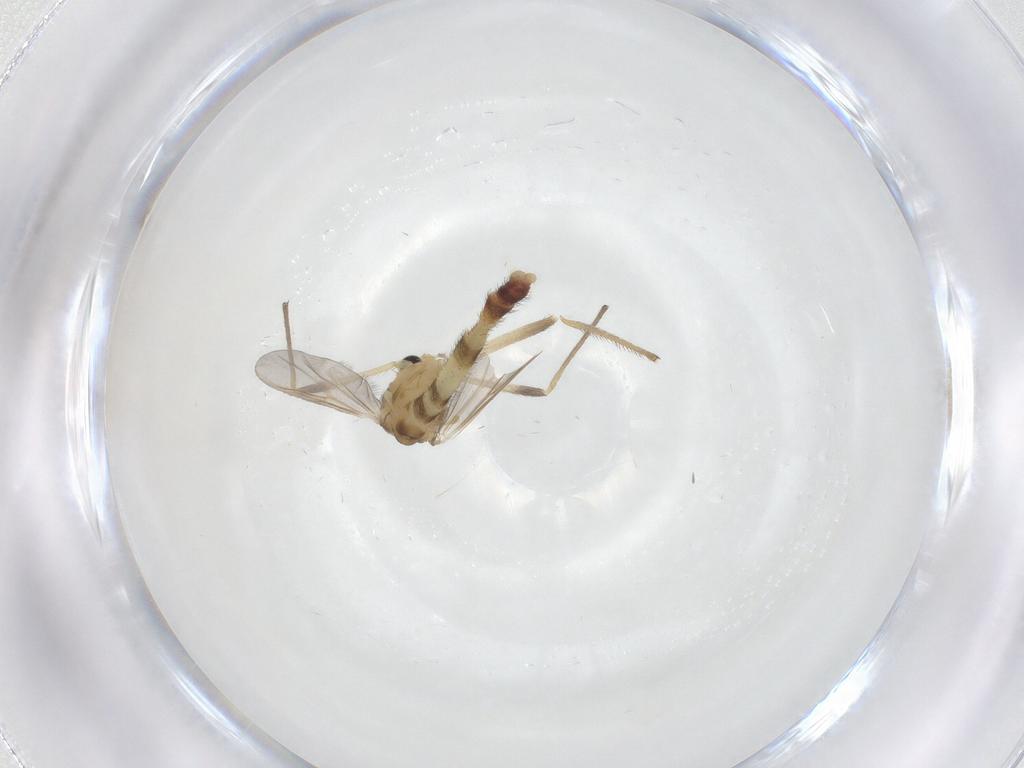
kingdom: Animalia
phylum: Arthropoda
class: Insecta
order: Diptera
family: Chironomidae
